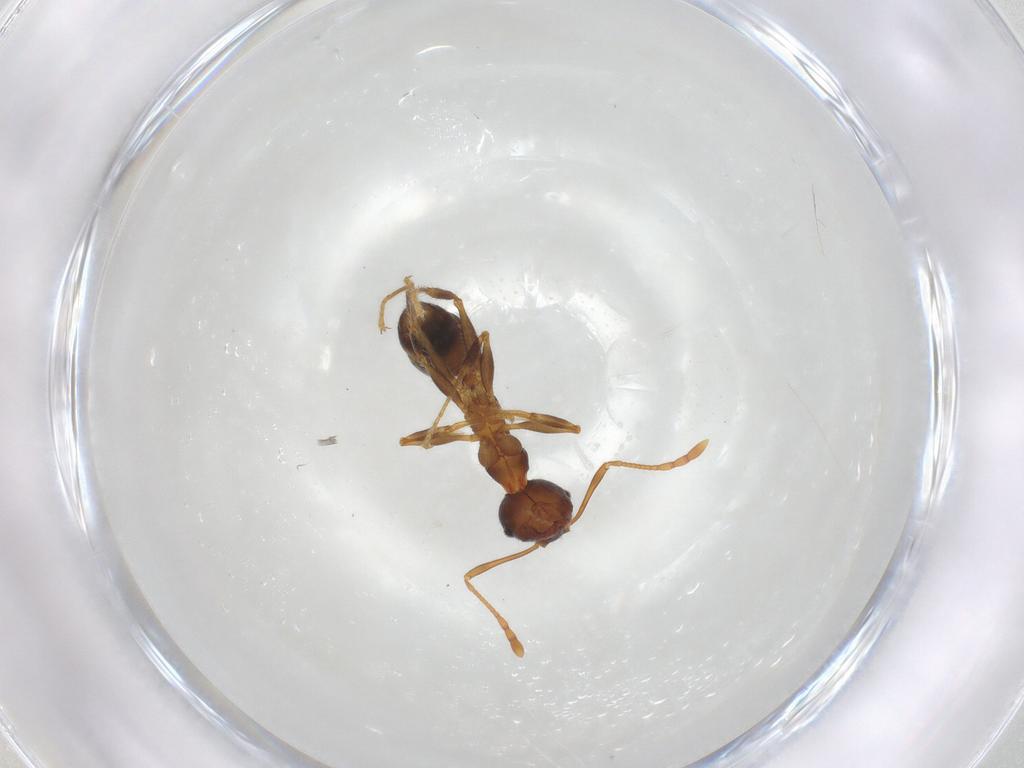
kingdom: Animalia
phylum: Arthropoda
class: Insecta
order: Hymenoptera
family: Formicidae
